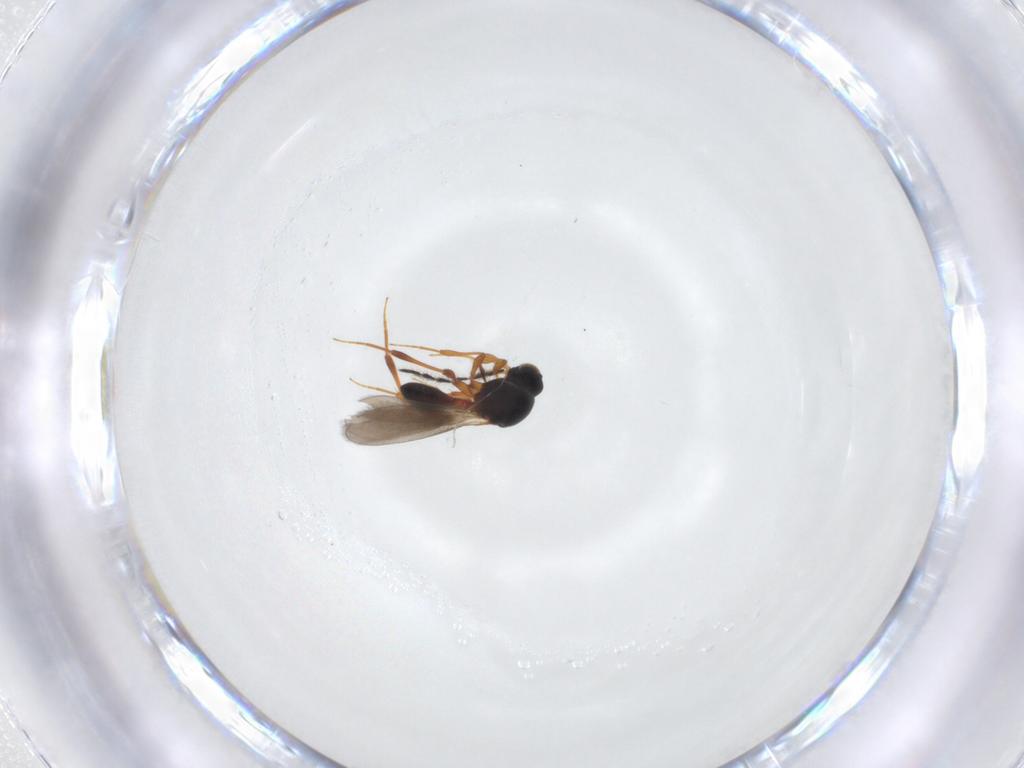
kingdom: Animalia
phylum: Arthropoda
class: Insecta
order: Hymenoptera
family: Platygastridae
